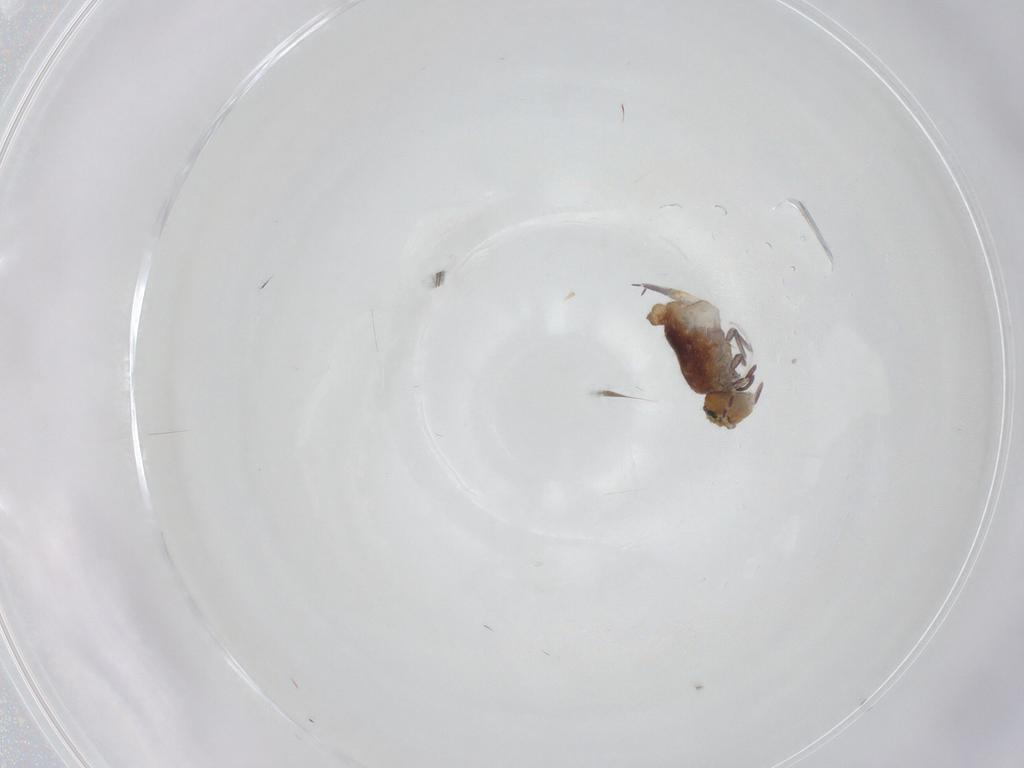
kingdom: Animalia
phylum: Arthropoda
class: Collembola
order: Symphypleona
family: Sminthuridae
